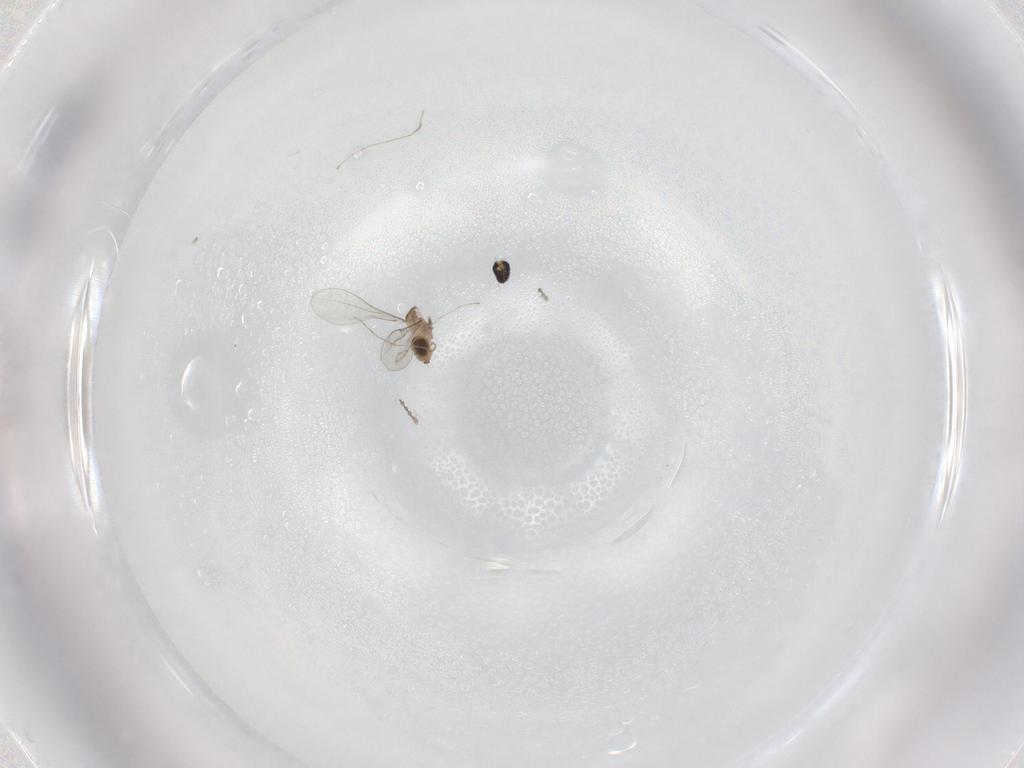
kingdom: Animalia
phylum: Arthropoda
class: Insecta
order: Diptera
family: Cecidomyiidae
